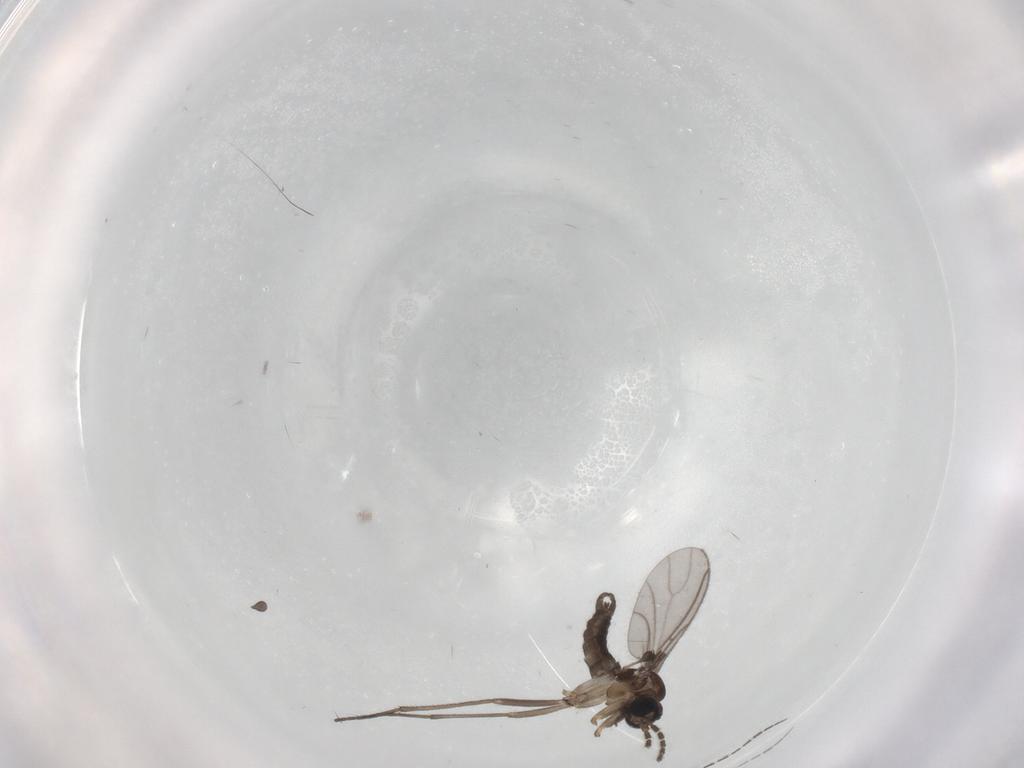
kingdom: Animalia
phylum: Arthropoda
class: Insecta
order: Diptera
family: Sciaridae
